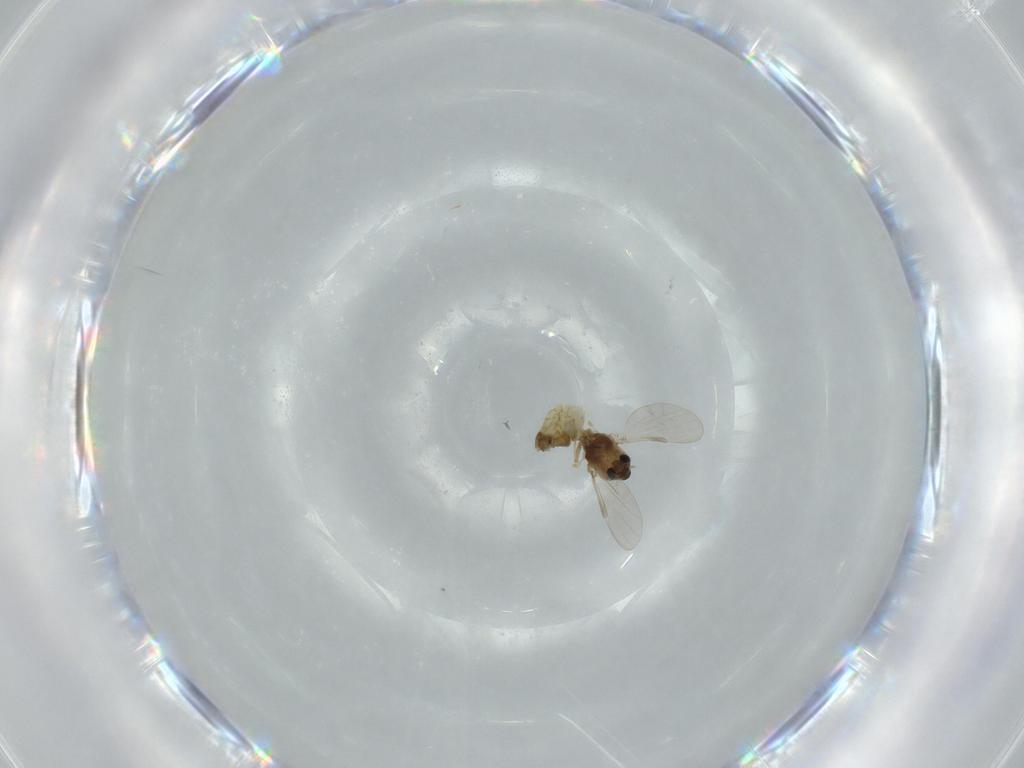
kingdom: Animalia
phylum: Arthropoda
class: Insecta
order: Diptera
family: Chironomidae
